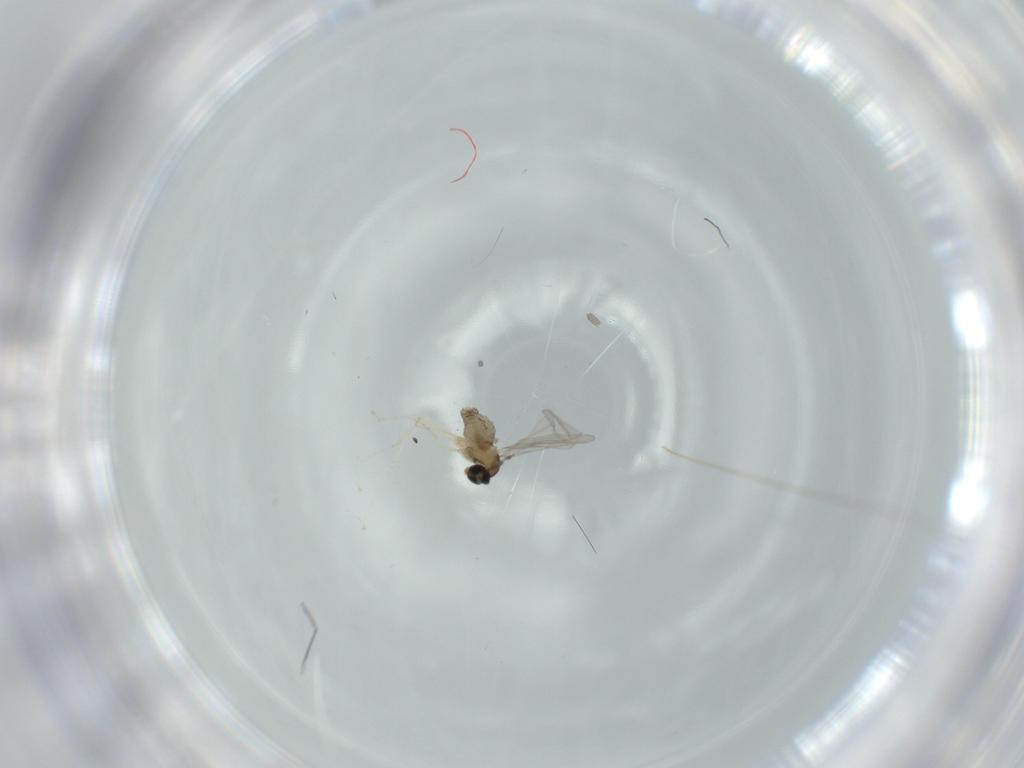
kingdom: Animalia
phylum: Arthropoda
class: Insecta
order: Diptera
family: Cecidomyiidae
